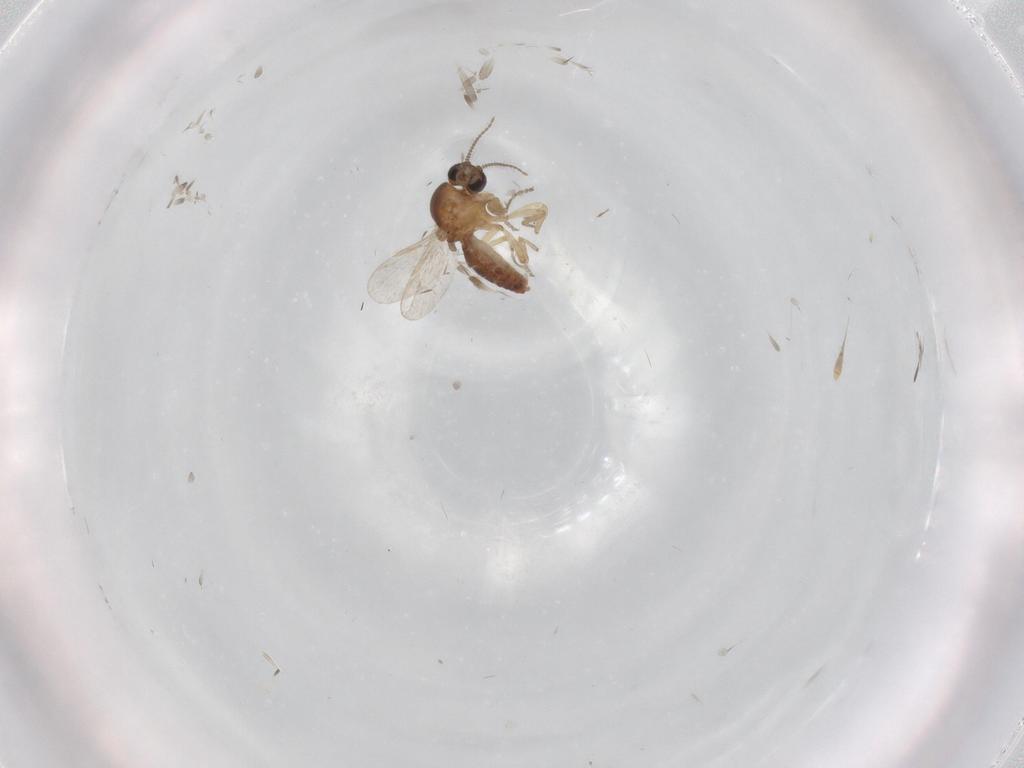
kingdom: Animalia
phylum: Arthropoda
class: Insecta
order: Diptera
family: Ceratopogonidae
